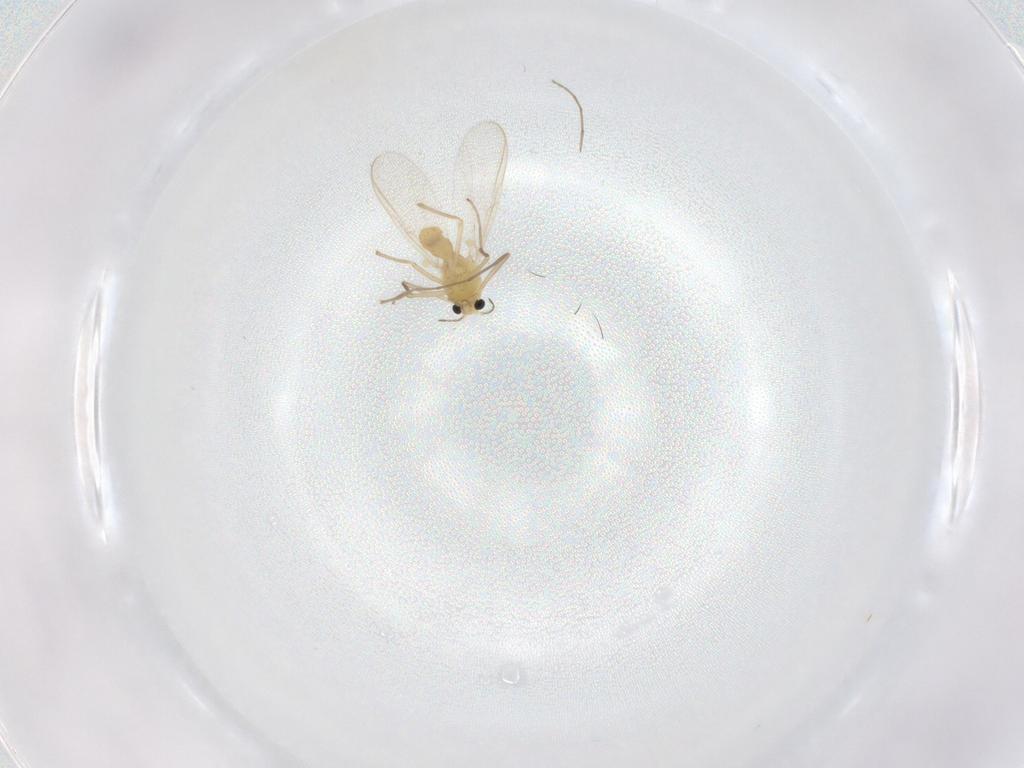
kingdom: Animalia
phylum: Arthropoda
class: Insecta
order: Diptera
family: Chironomidae
